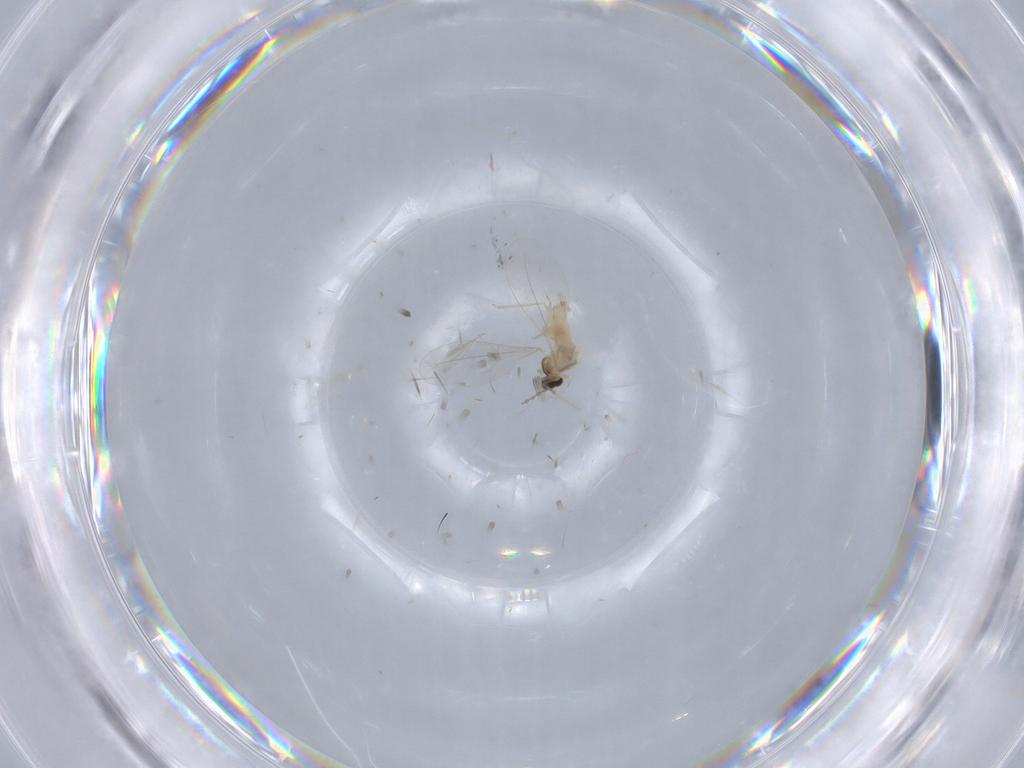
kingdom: Animalia
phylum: Arthropoda
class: Insecta
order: Diptera
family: Cecidomyiidae
